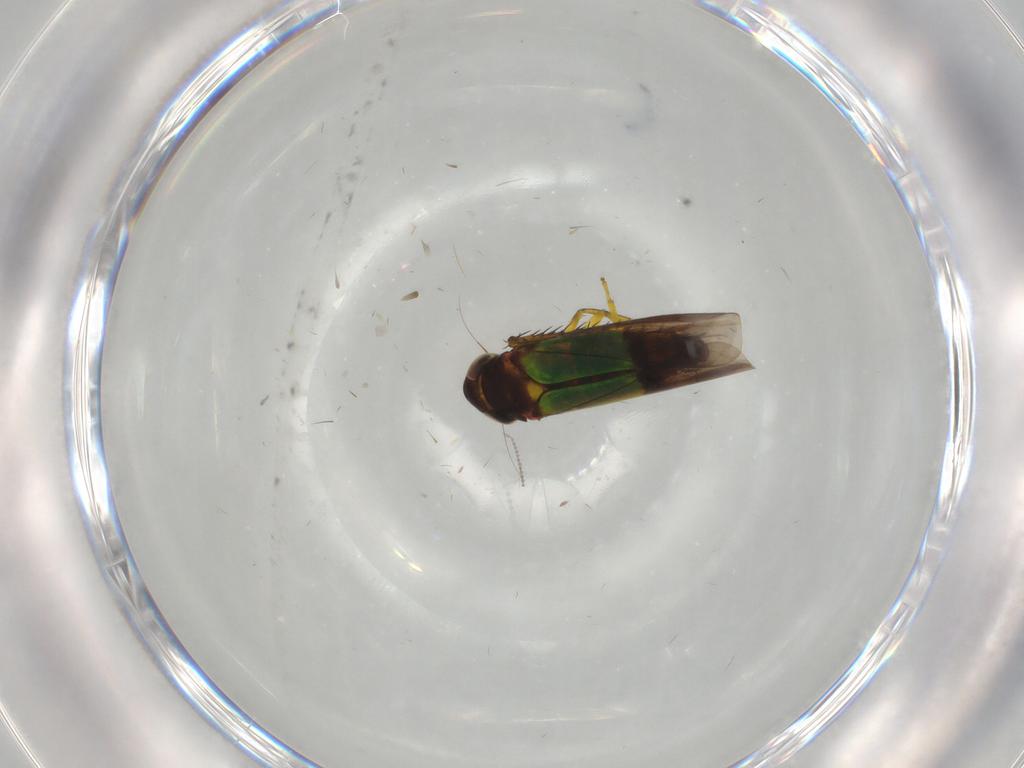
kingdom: Animalia
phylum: Arthropoda
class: Insecta
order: Hemiptera
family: Cicadellidae
